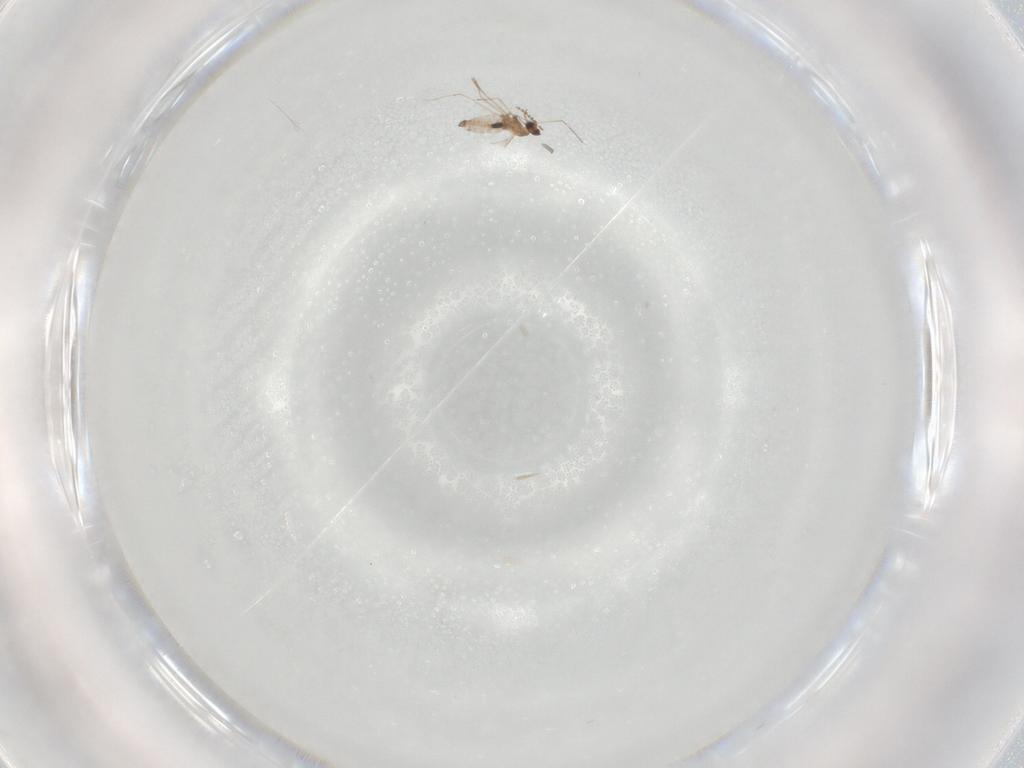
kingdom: Animalia
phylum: Arthropoda
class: Insecta
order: Diptera
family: Cecidomyiidae
